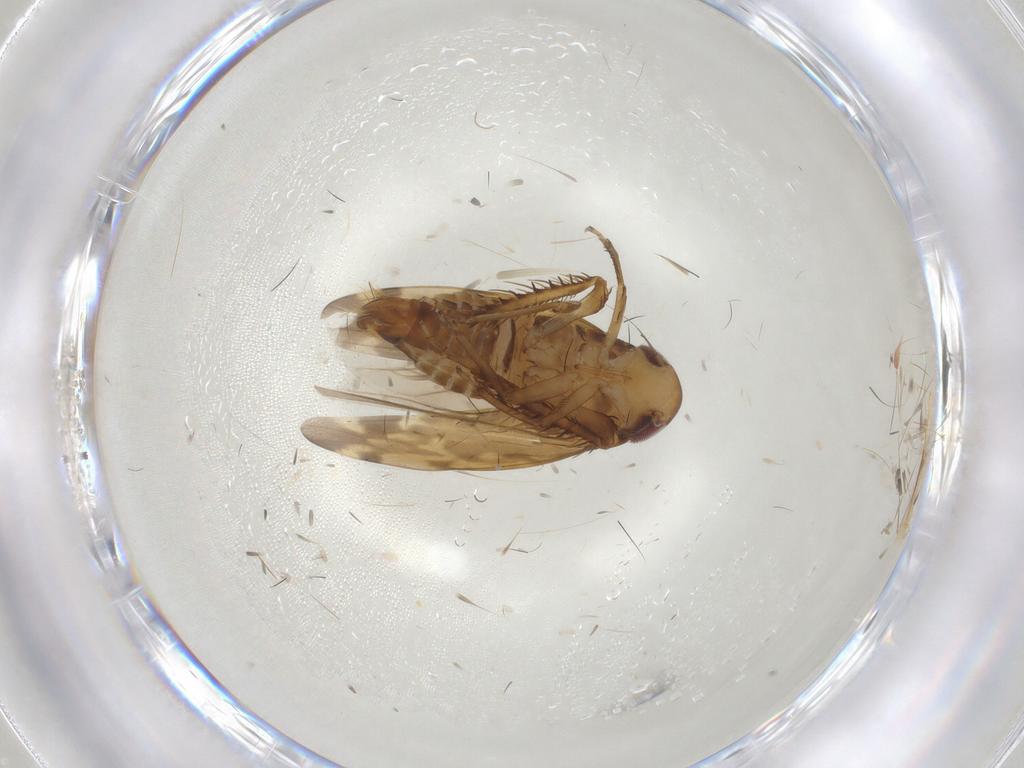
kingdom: Animalia
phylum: Arthropoda
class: Insecta
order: Hemiptera
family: Cicadellidae
